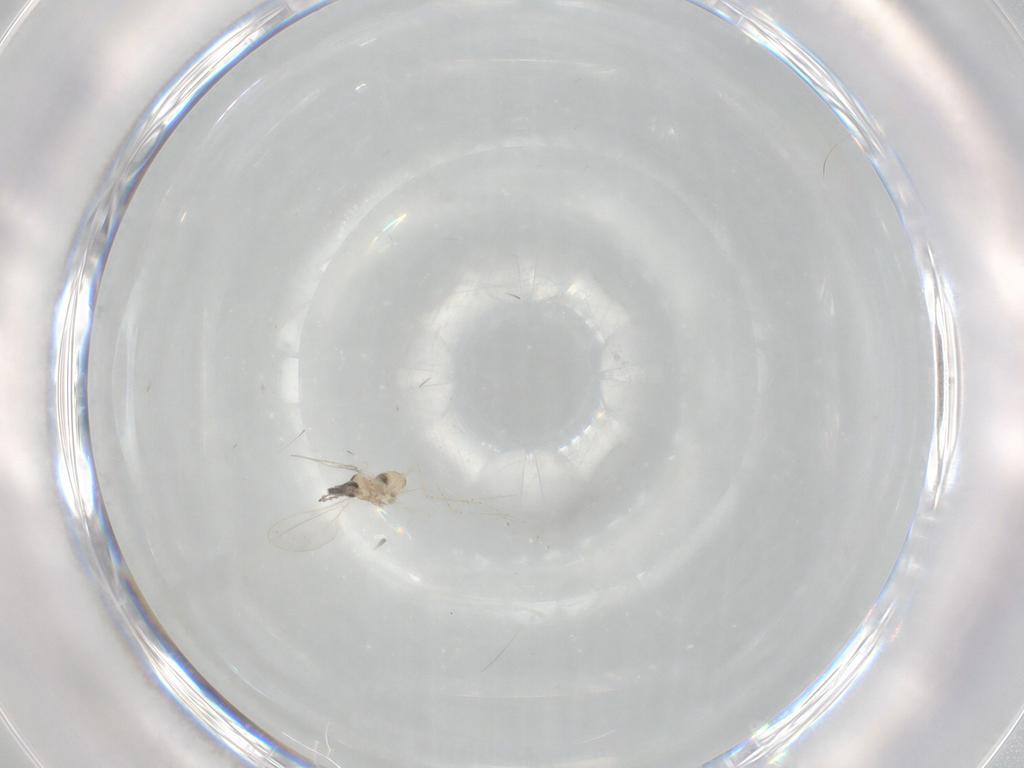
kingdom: Animalia
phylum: Arthropoda
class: Insecta
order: Diptera
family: Cecidomyiidae
